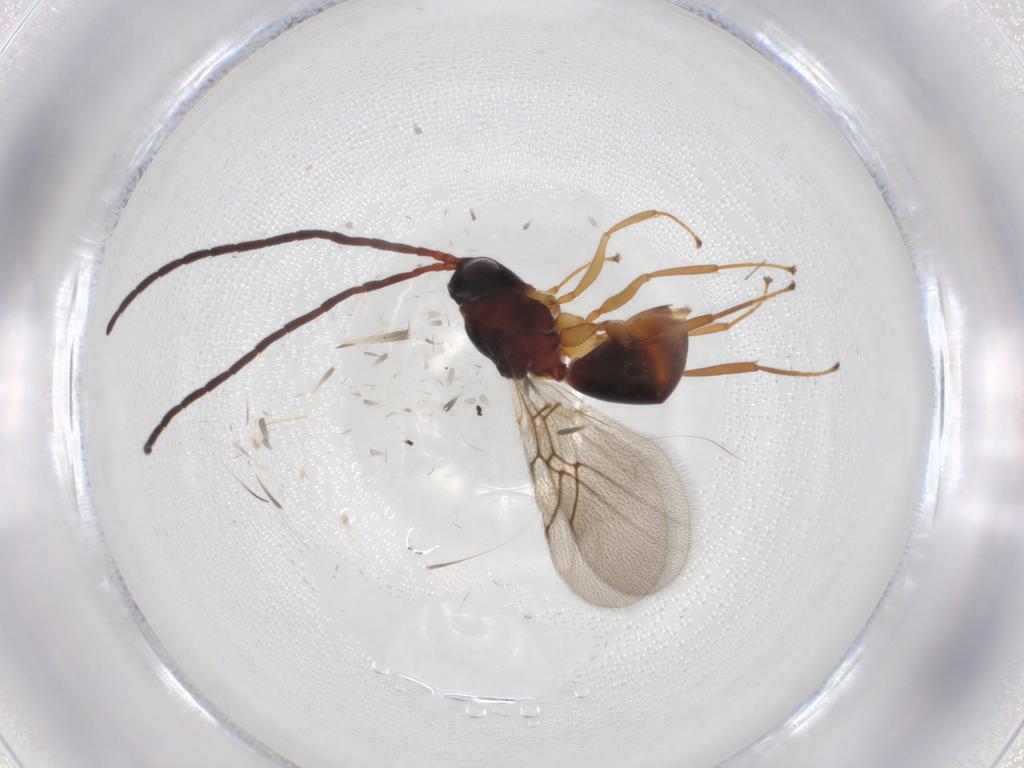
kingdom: Animalia
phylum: Arthropoda
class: Insecta
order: Hymenoptera
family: Figitidae
